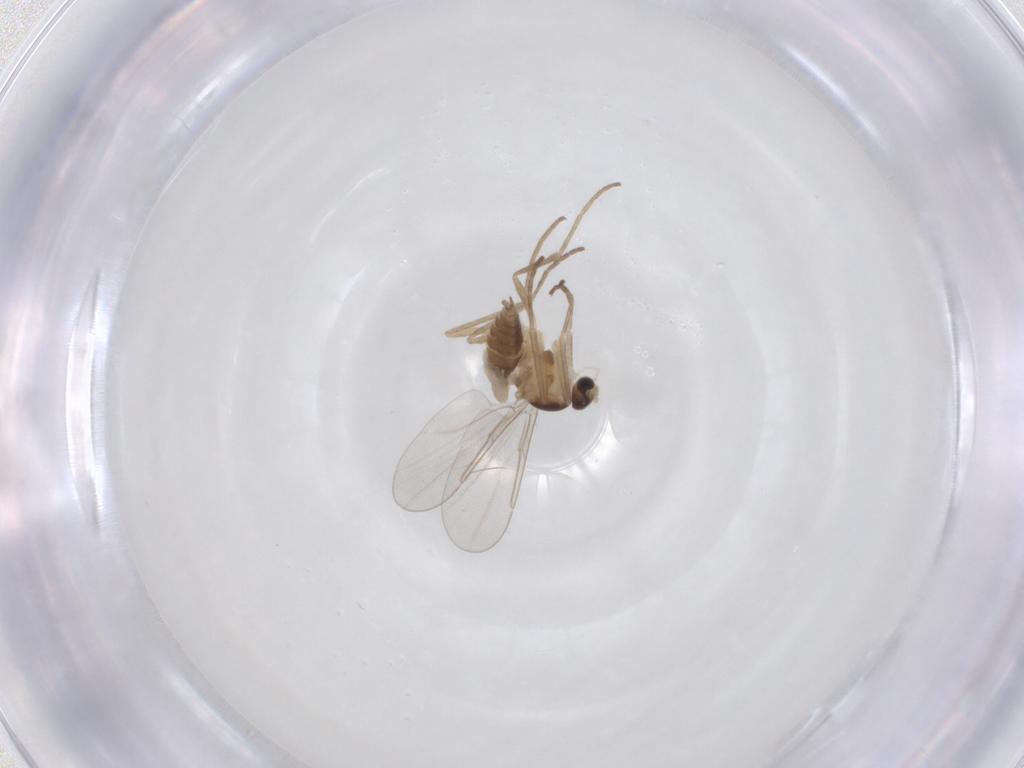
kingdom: Animalia
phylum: Arthropoda
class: Insecta
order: Diptera
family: Cecidomyiidae
